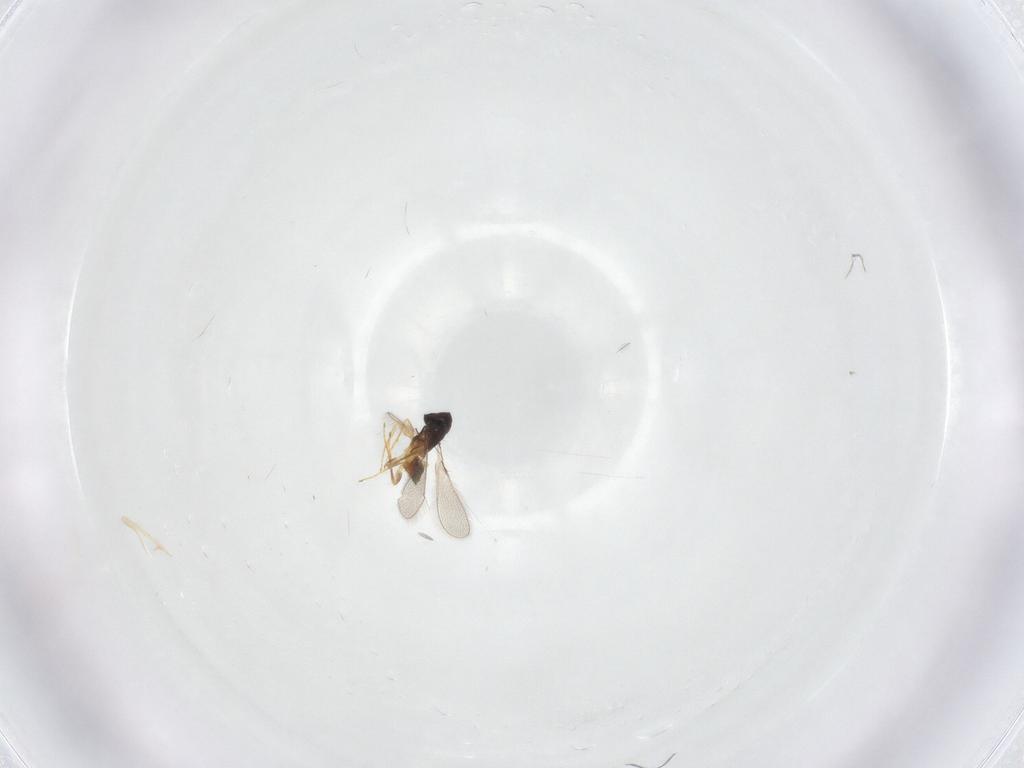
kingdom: Animalia
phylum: Arthropoda
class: Insecta
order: Hymenoptera
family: Mymaridae
